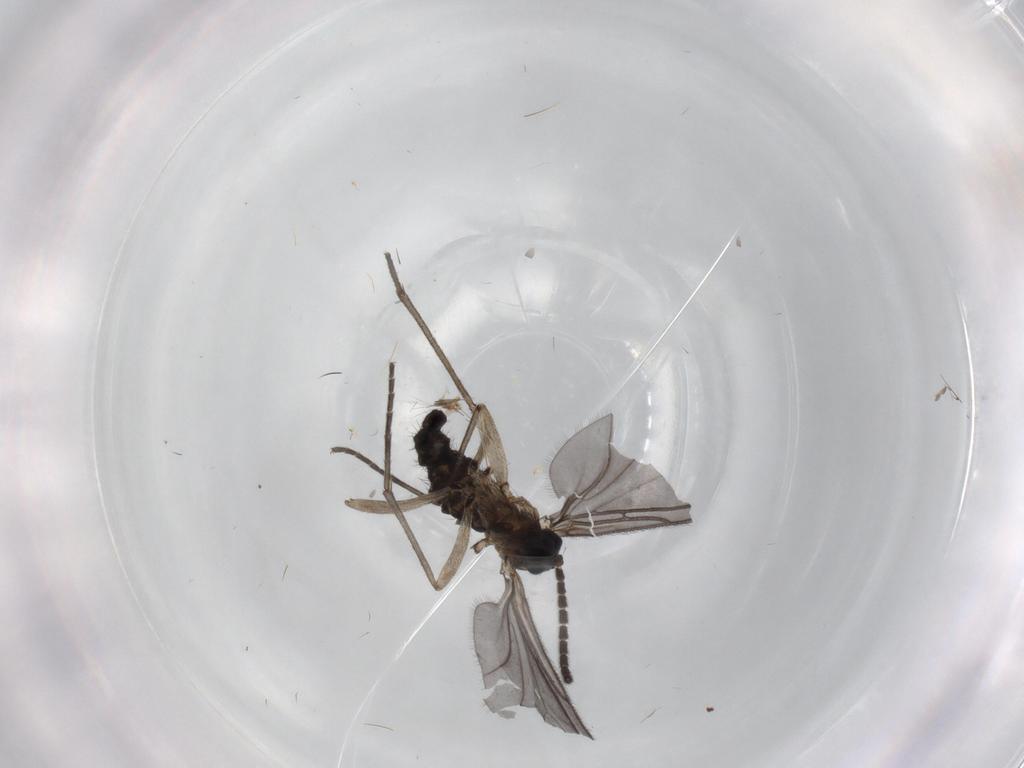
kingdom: Animalia
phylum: Arthropoda
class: Insecta
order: Diptera
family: Sciaridae
